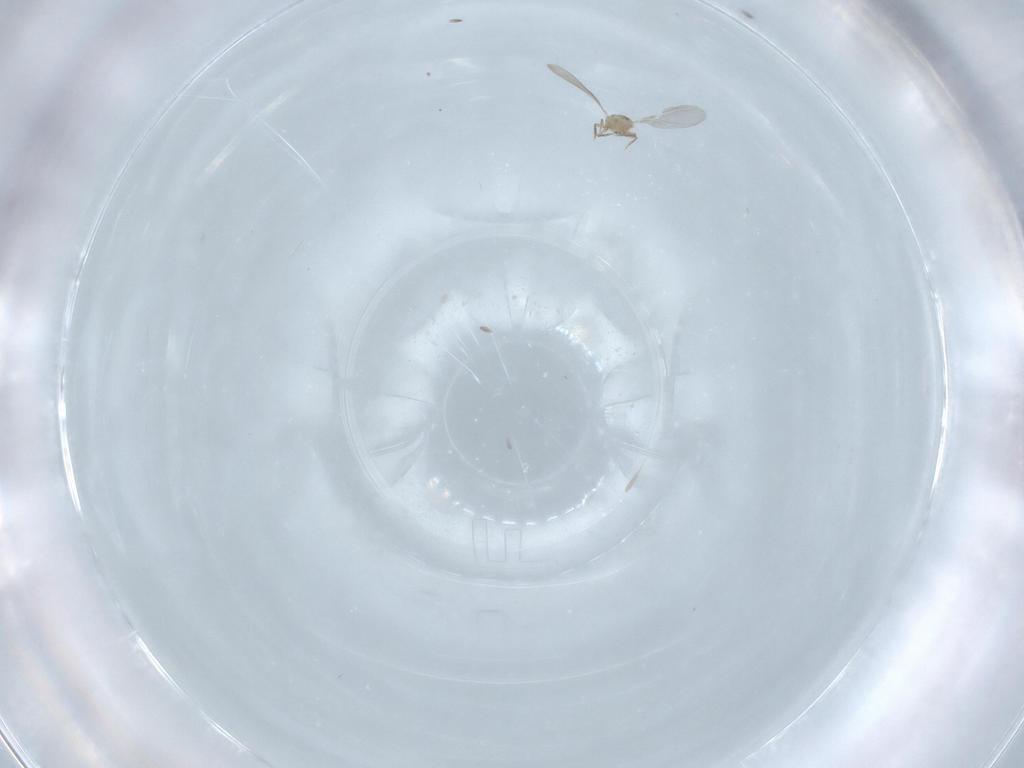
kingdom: Animalia
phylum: Arthropoda
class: Insecta
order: Hemiptera
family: Diaspididae
